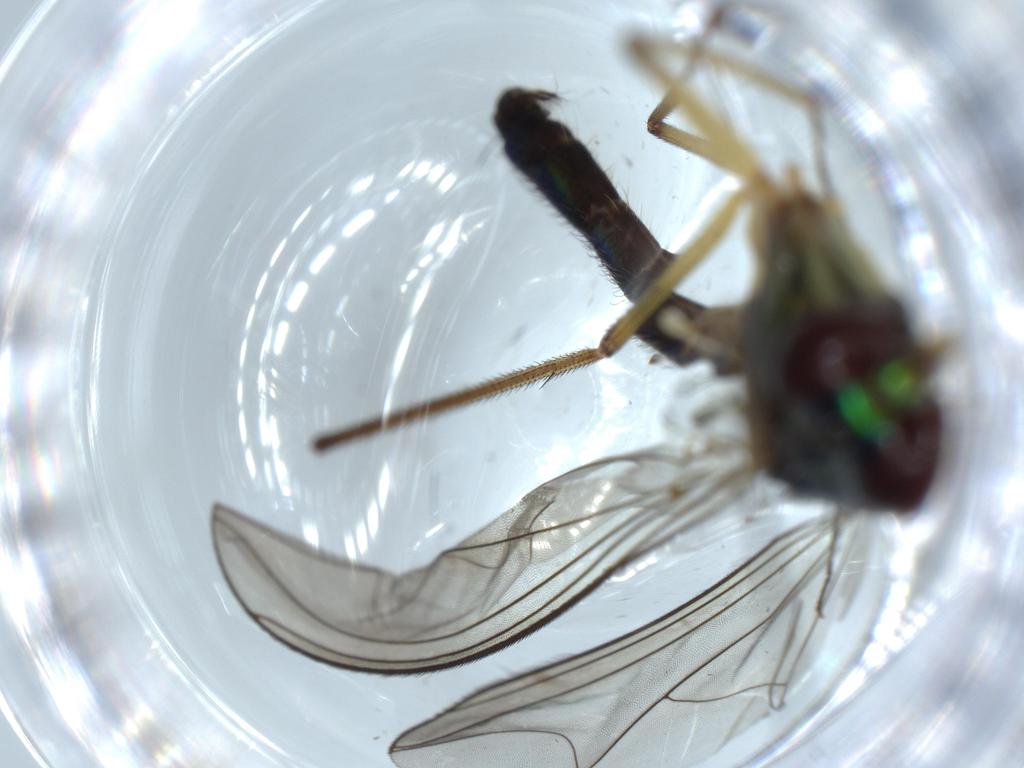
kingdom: Animalia
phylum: Arthropoda
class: Insecta
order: Diptera
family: Dolichopodidae
